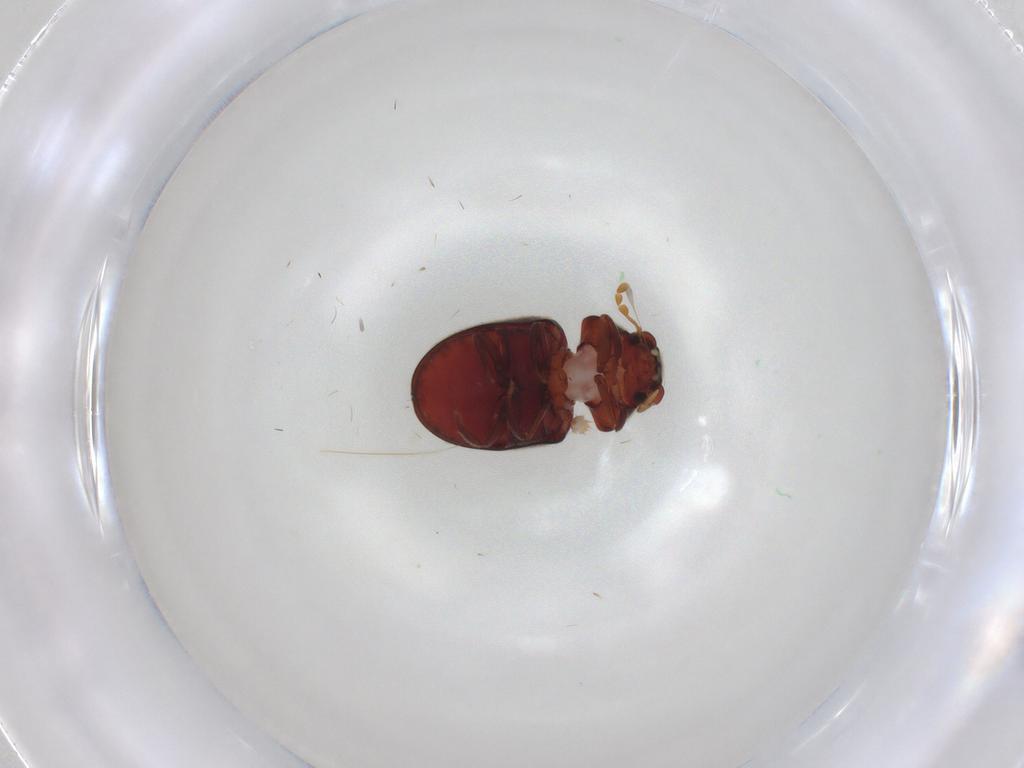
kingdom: Animalia
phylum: Arthropoda
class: Insecta
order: Coleoptera
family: Ptinidae
